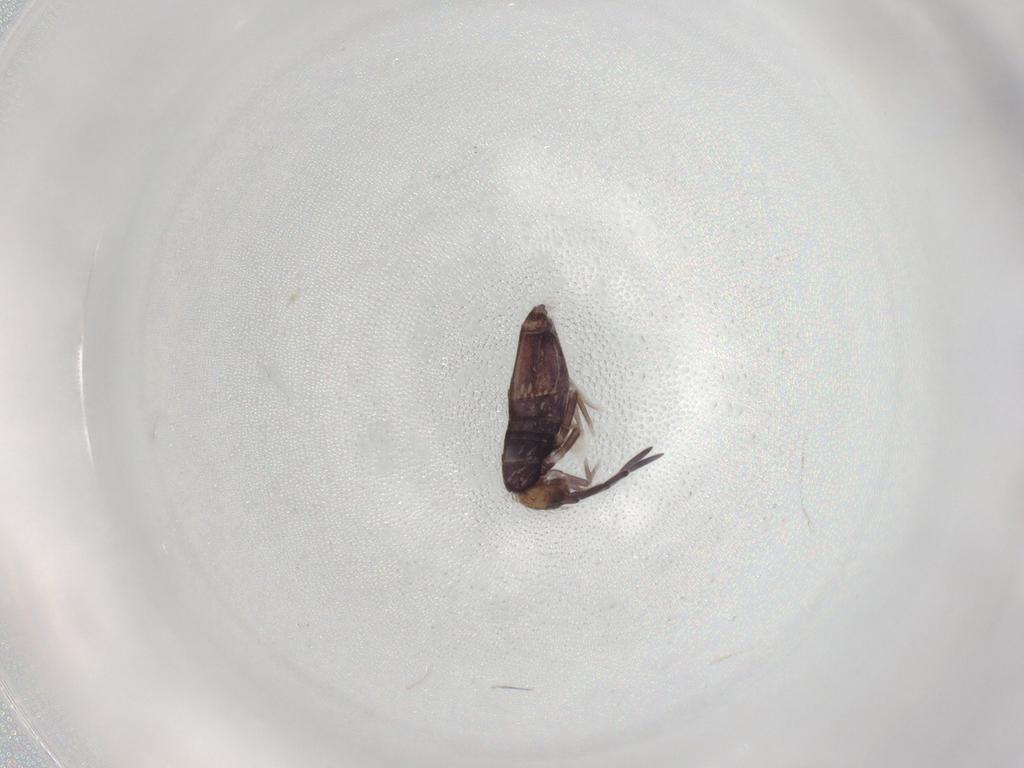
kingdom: Animalia
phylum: Arthropoda
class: Collembola
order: Entomobryomorpha
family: Entomobryidae
